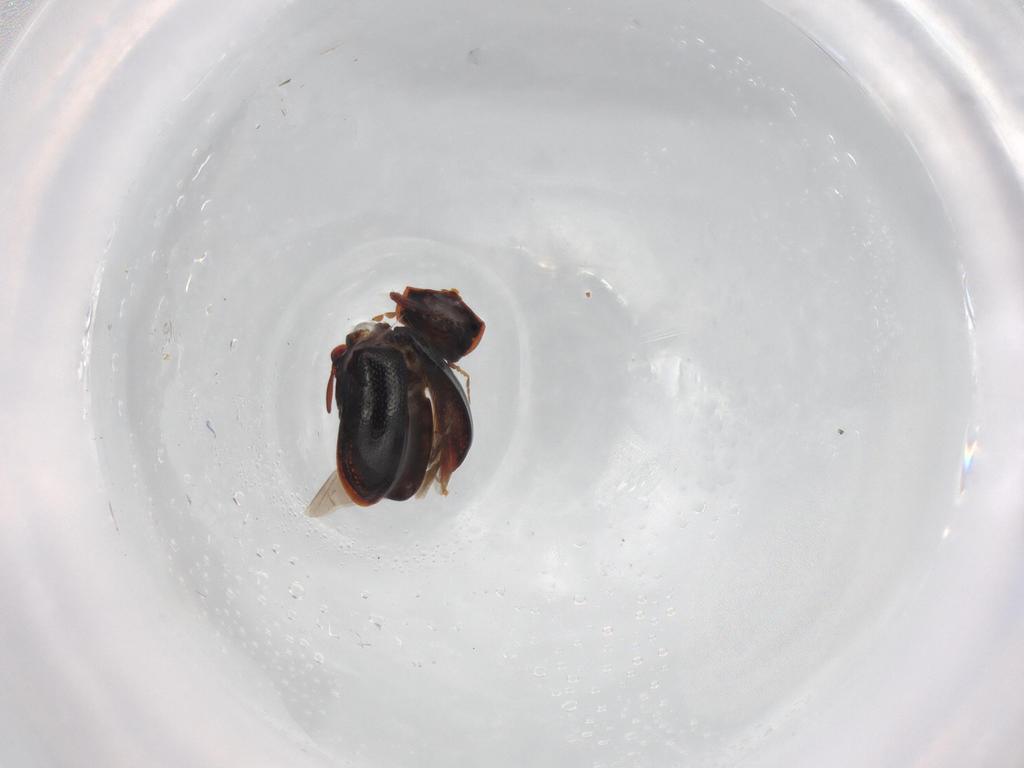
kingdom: Animalia
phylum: Arthropoda
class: Insecta
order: Coleoptera
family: Ptinidae
